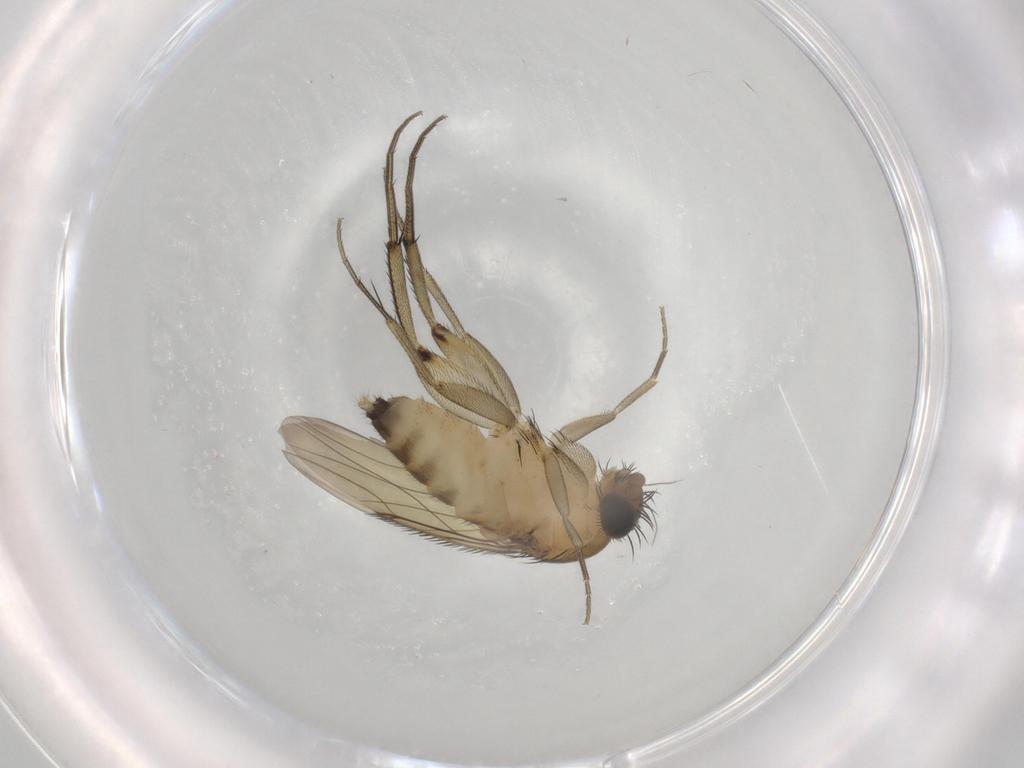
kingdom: Animalia
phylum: Arthropoda
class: Insecta
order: Diptera
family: Phoridae
